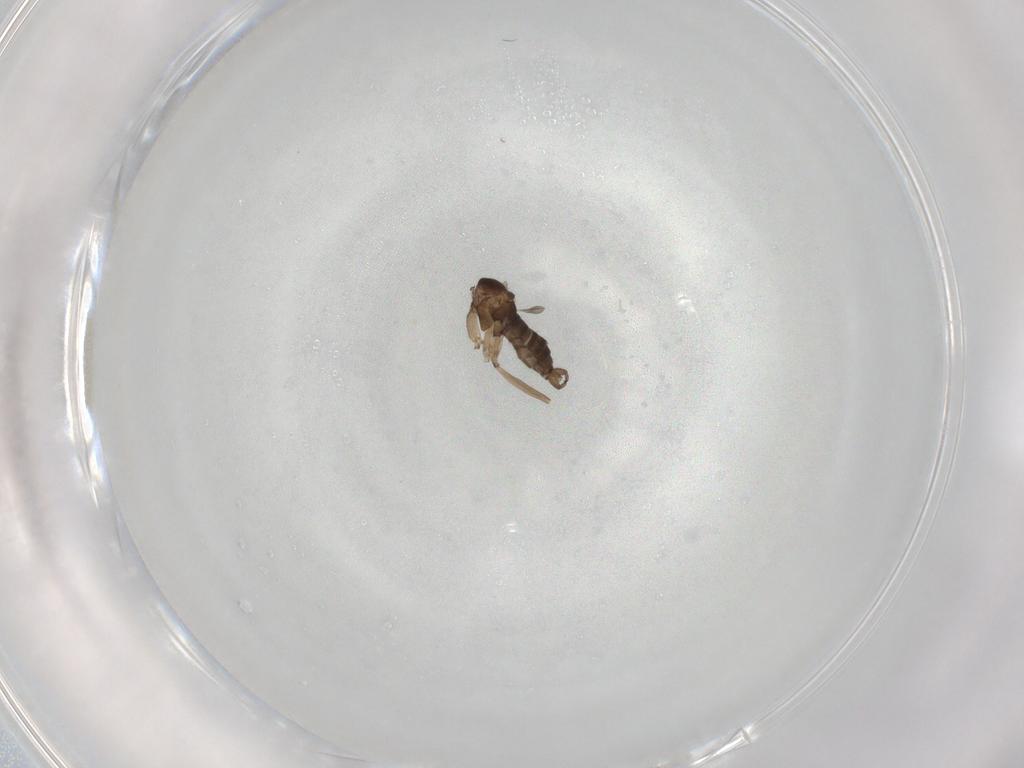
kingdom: Animalia
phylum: Arthropoda
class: Insecta
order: Diptera
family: Sciaridae
